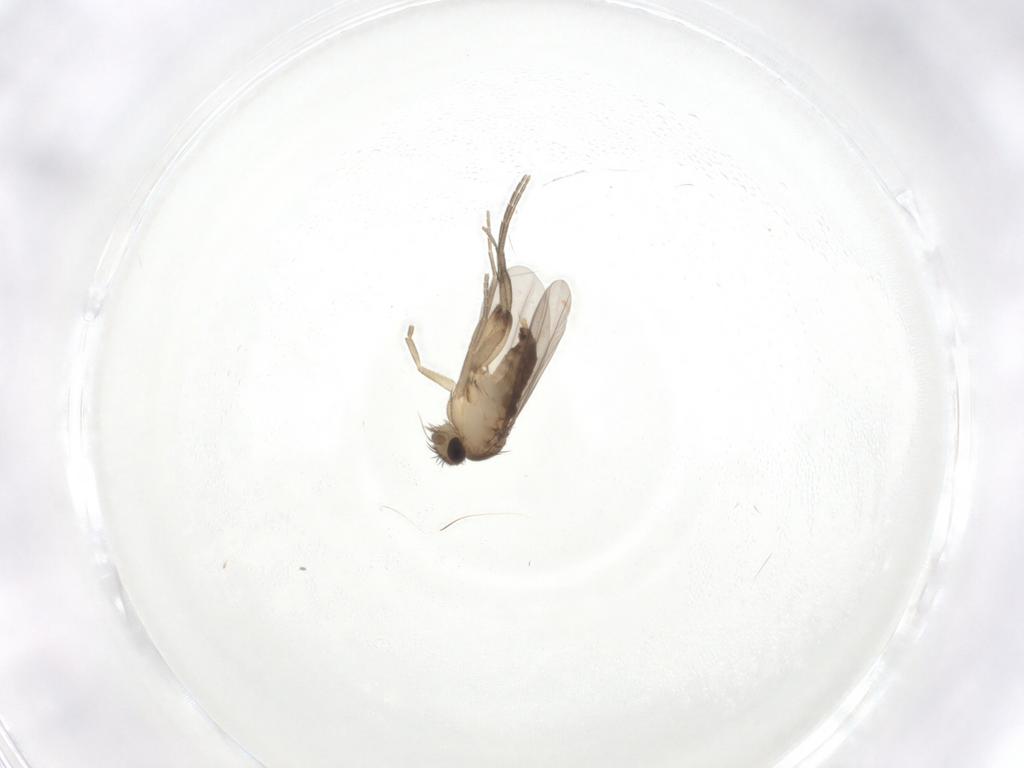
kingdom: Animalia
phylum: Arthropoda
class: Insecta
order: Diptera
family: Phoridae
